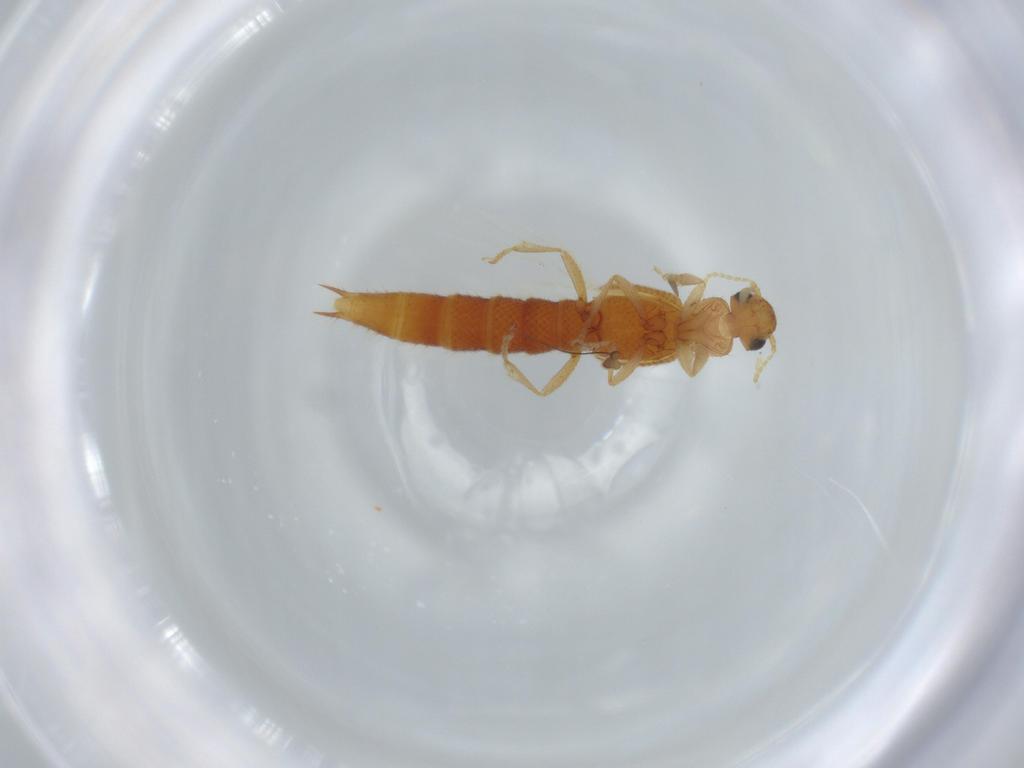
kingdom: Animalia
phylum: Arthropoda
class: Insecta
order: Coleoptera
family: Staphylinidae
